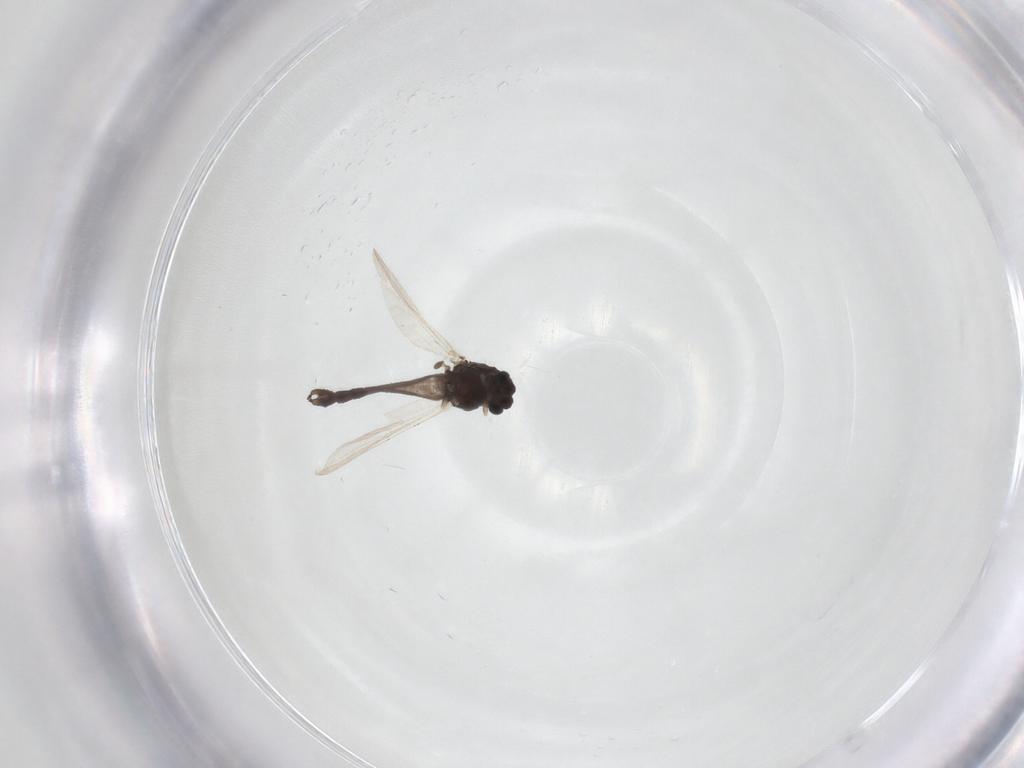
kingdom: Animalia
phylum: Arthropoda
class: Insecta
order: Diptera
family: Chironomidae
